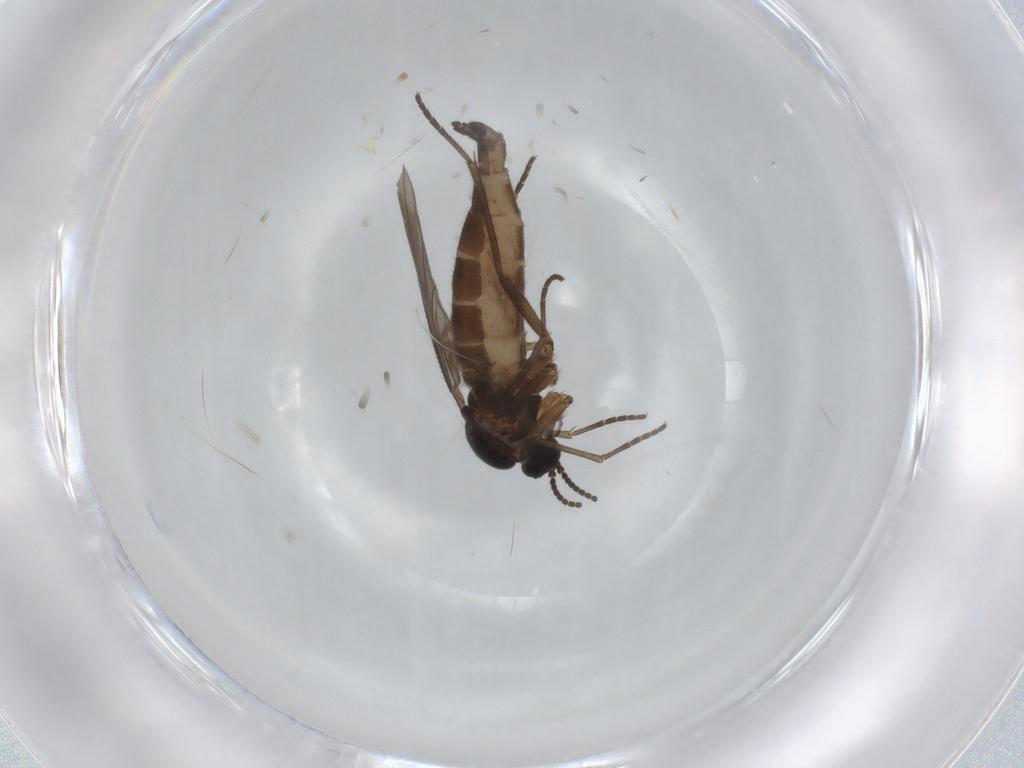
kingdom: Animalia
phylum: Arthropoda
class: Insecta
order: Diptera
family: Sciaridae
